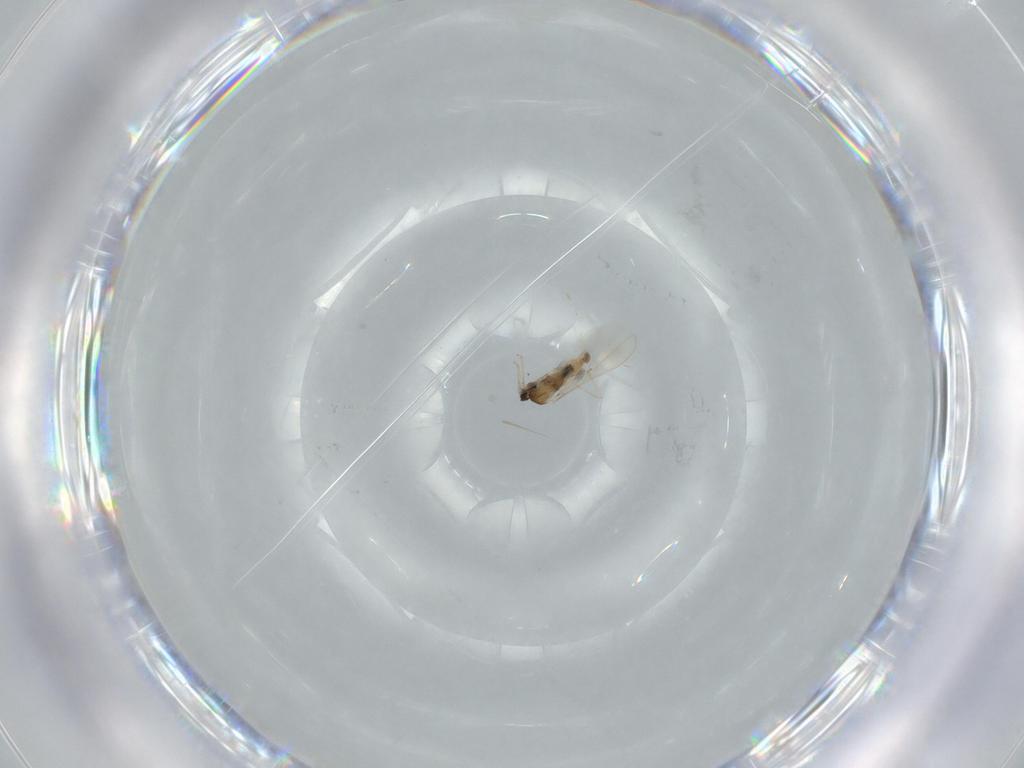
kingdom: Animalia
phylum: Arthropoda
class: Insecta
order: Diptera
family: Cecidomyiidae
